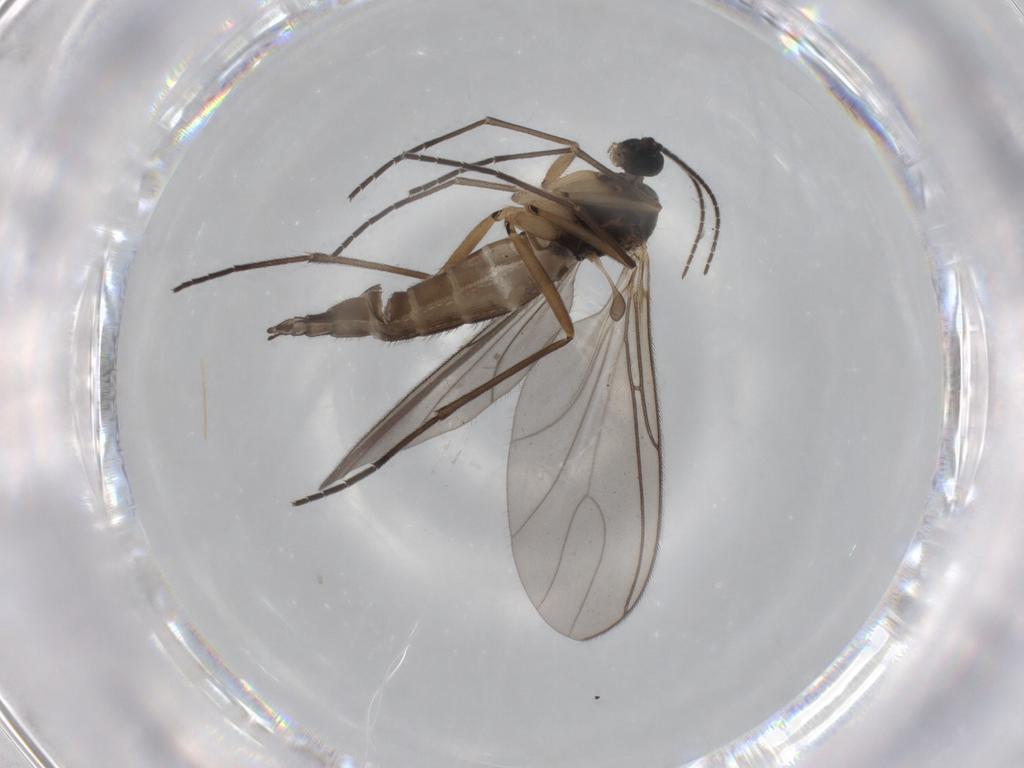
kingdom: Animalia
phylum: Arthropoda
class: Insecta
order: Diptera
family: Sciaridae
